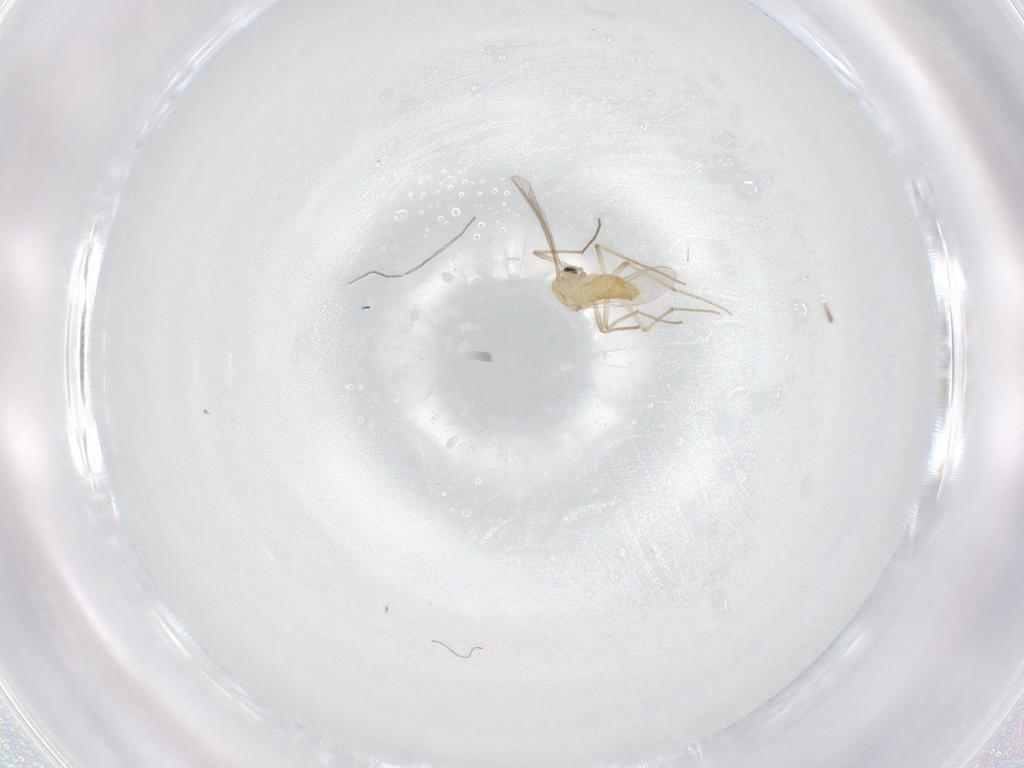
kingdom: Animalia
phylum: Arthropoda
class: Insecta
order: Diptera
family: Chironomidae
